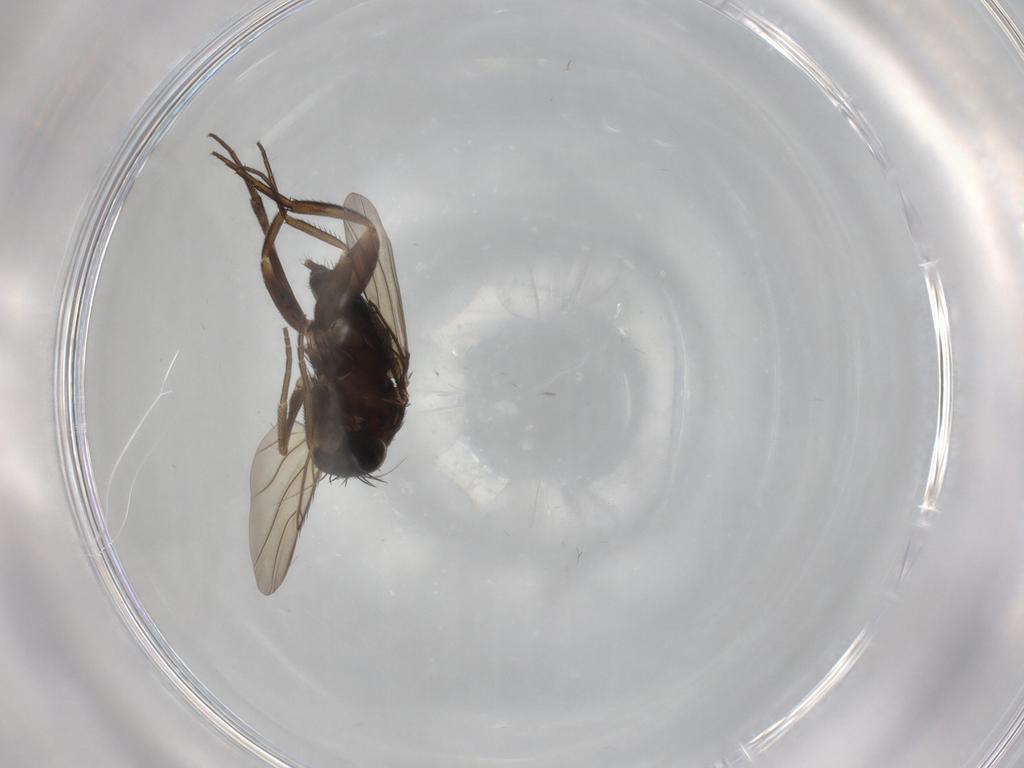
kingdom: Animalia
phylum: Arthropoda
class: Insecta
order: Diptera
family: Phoridae
